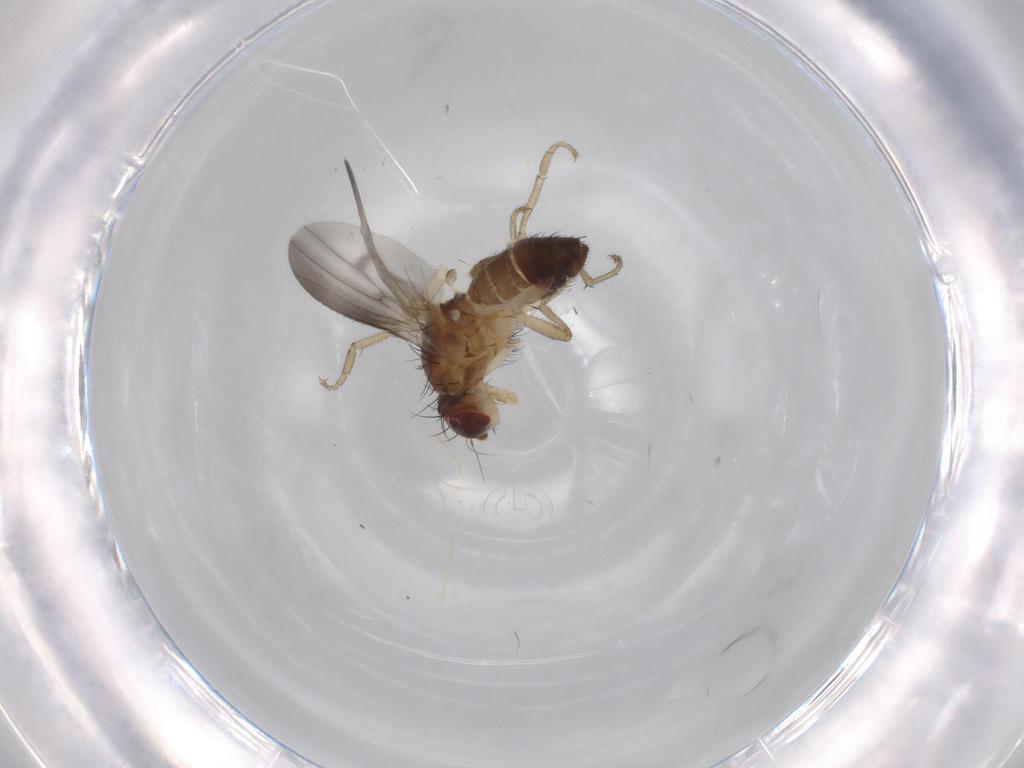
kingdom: Animalia
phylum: Arthropoda
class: Insecta
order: Diptera
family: Heleomyzidae
